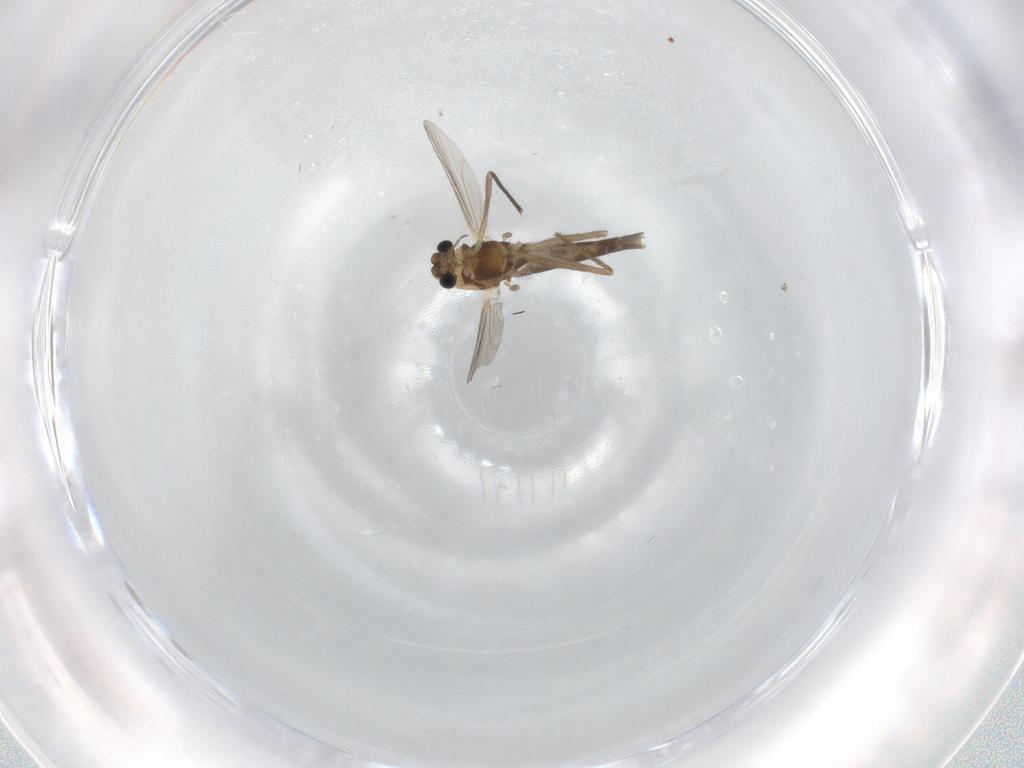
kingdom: Animalia
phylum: Arthropoda
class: Insecta
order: Diptera
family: Chironomidae
